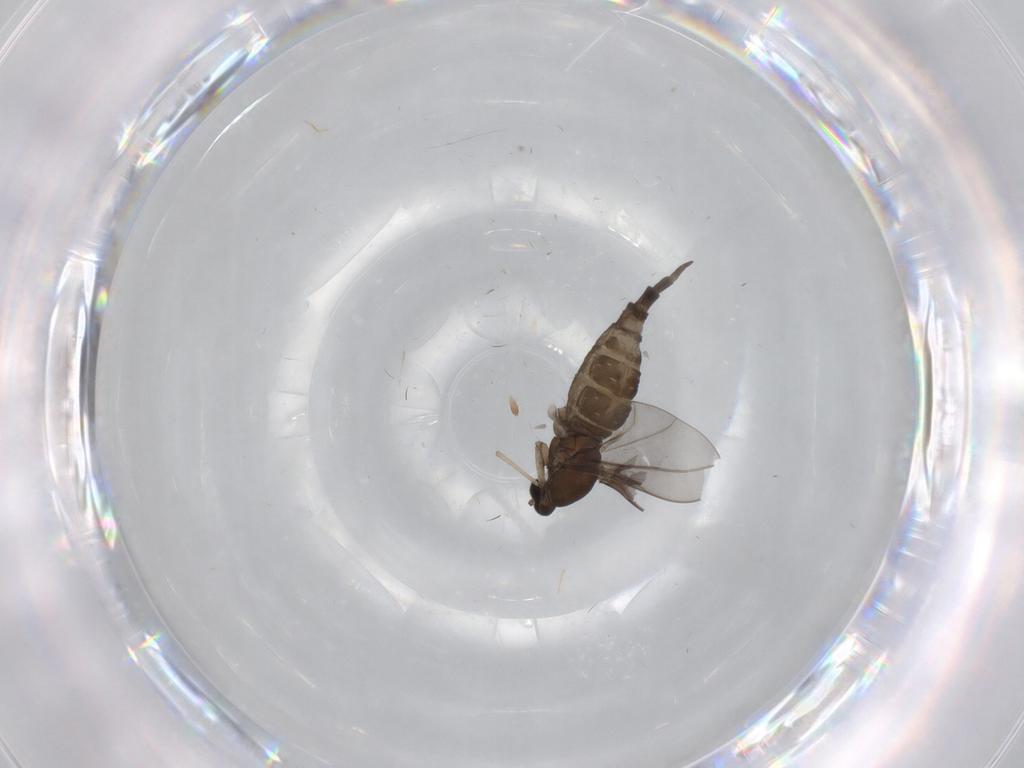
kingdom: Animalia
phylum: Arthropoda
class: Insecta
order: Diptera
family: Cecidomyiidae
